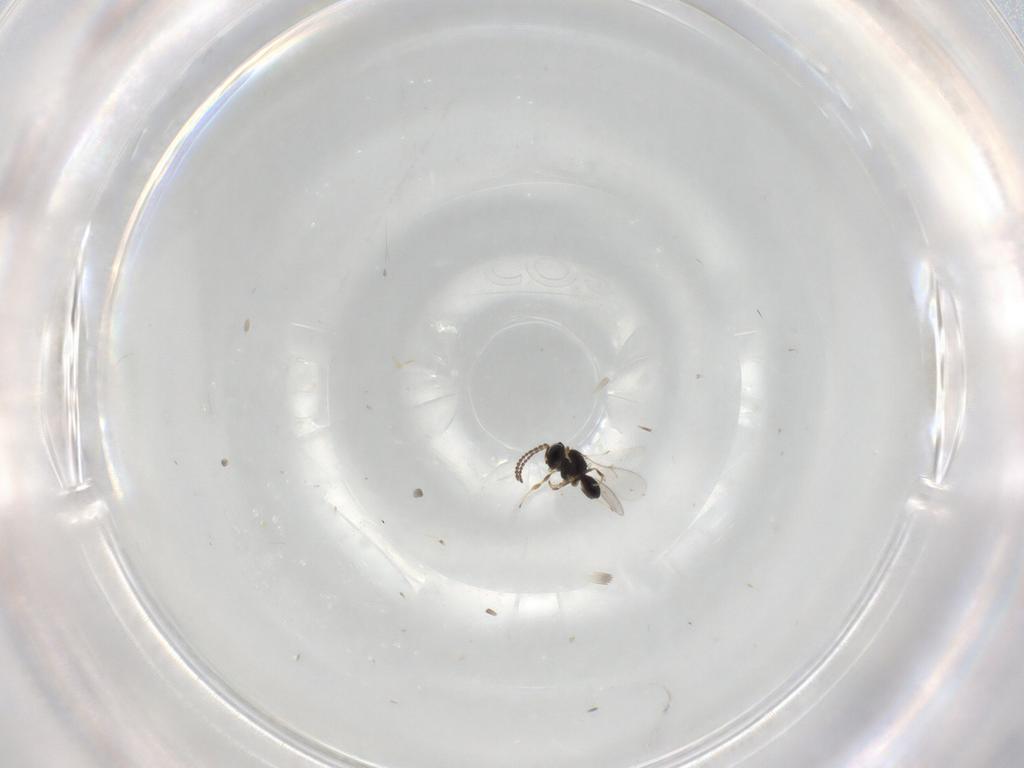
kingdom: Animalia
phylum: Arthropoda
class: Insecta
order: Hymenoptera
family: Scelionidae
